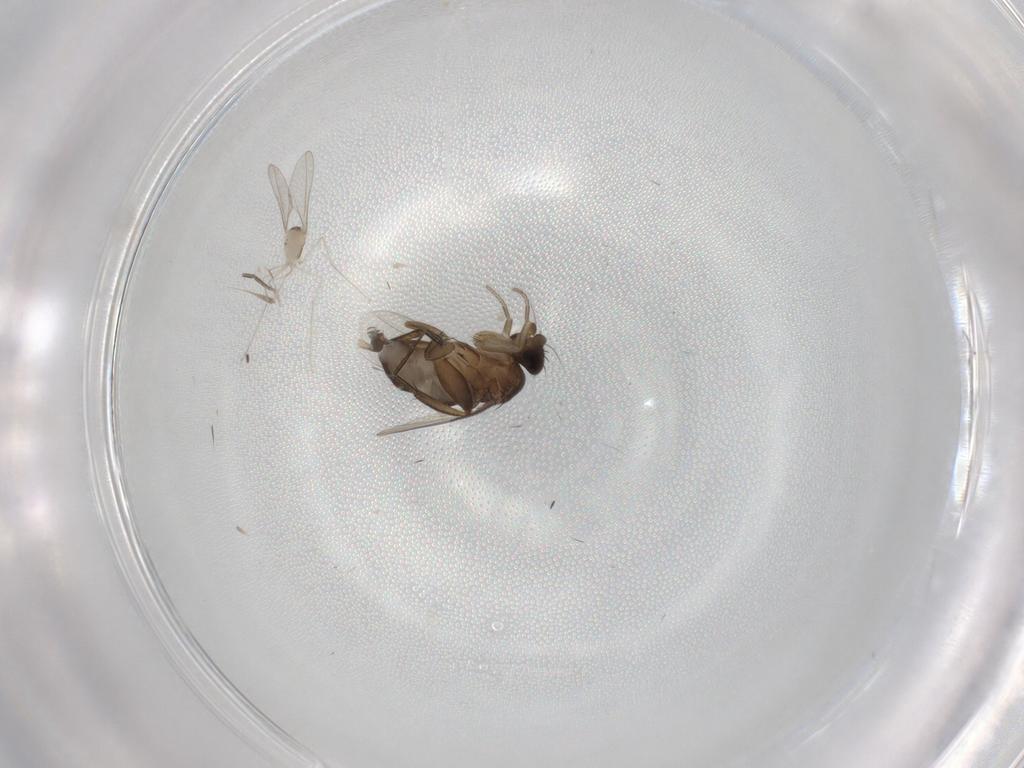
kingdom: Animalia
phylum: Arthropoda
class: Insecta
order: Diptera
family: Phoridae
